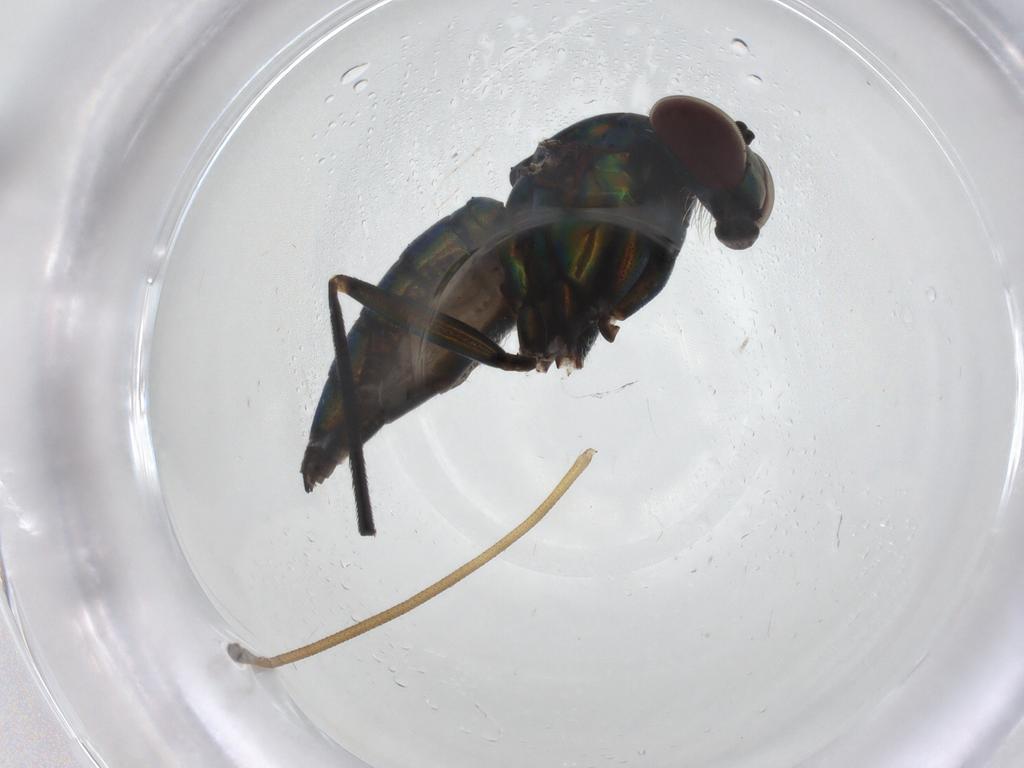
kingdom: Animalia
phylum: Arthropoda
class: Insecta
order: Diptera
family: Dolichopodidae
